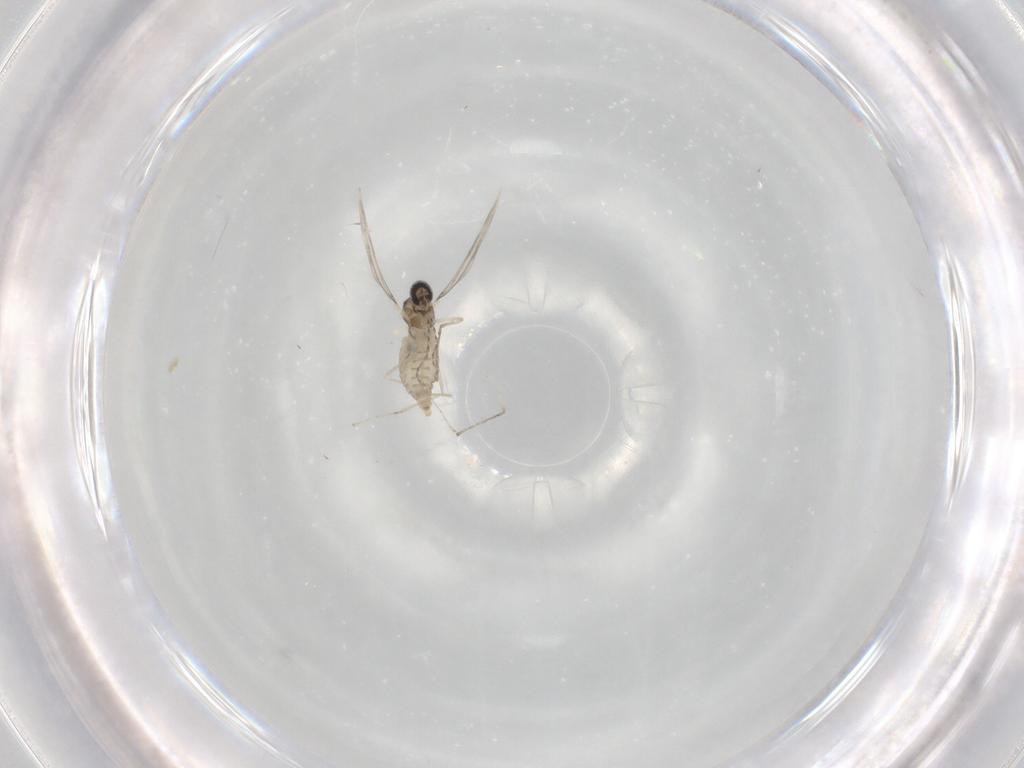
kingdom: Animalia
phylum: Arthropoda
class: Insecta
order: Diptera
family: Cecidomyiidae
